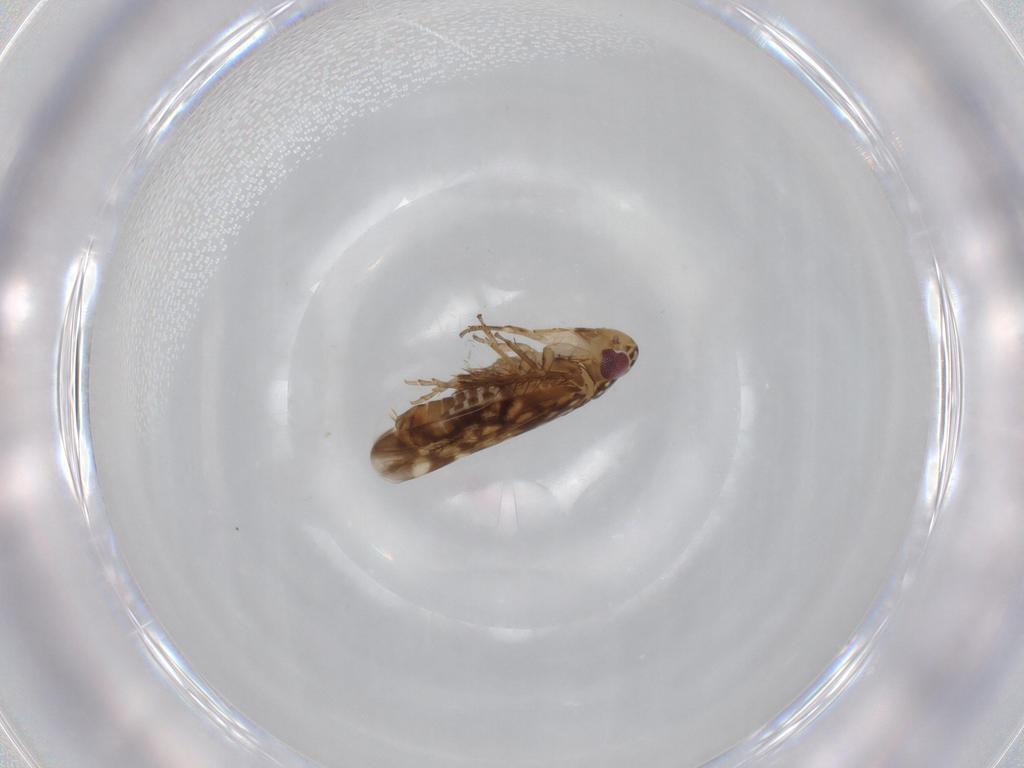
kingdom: Animalia
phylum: Arthropoda
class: Insecta
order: Hemiptera
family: Cicadellidae
